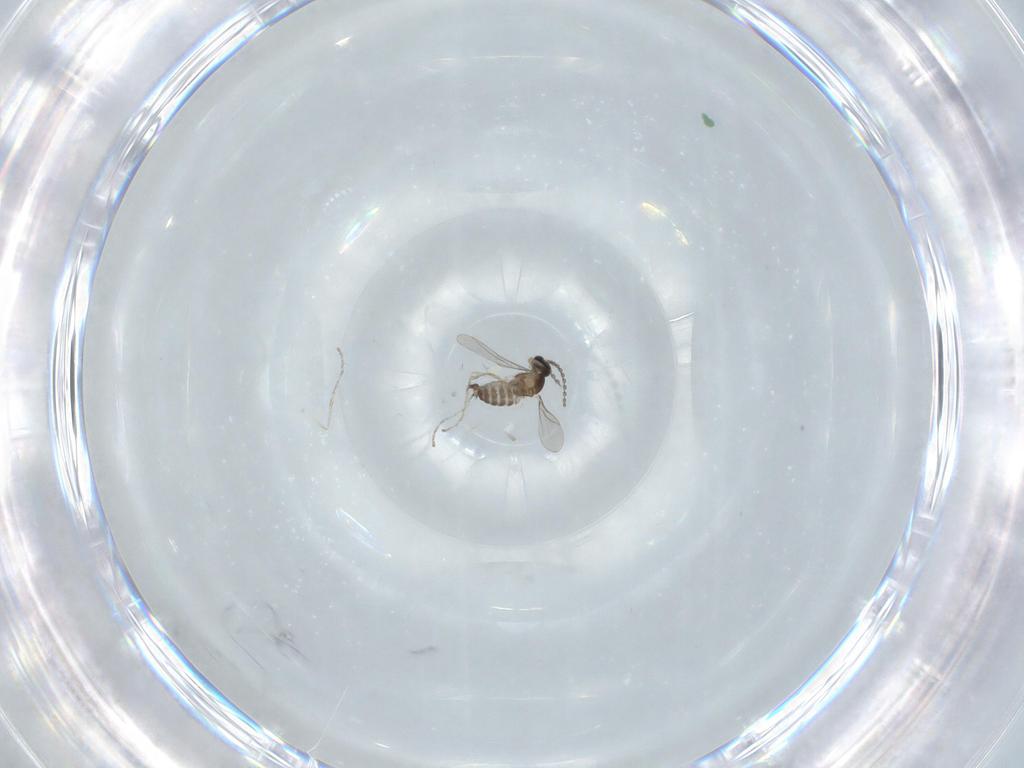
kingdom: Animalia
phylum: Arthropoda
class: Insecta
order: Diptera
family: Cecidomyiidae
